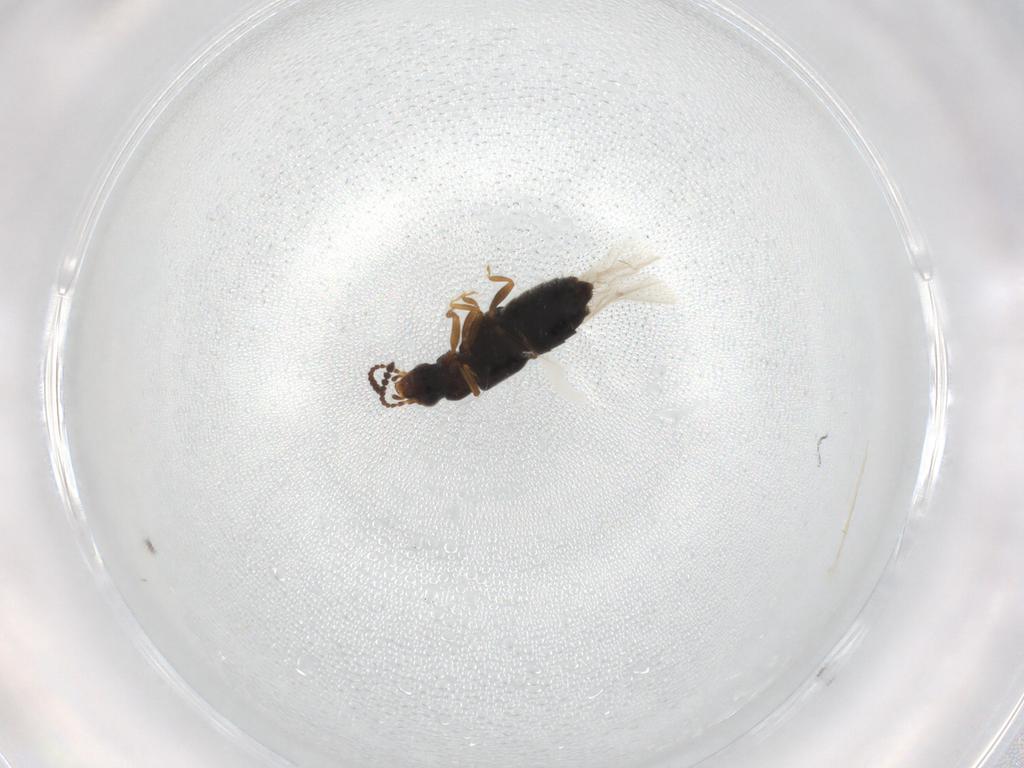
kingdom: Animalia
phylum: Arthropoda
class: Insecta
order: Coleoptera
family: Staphylinidae
